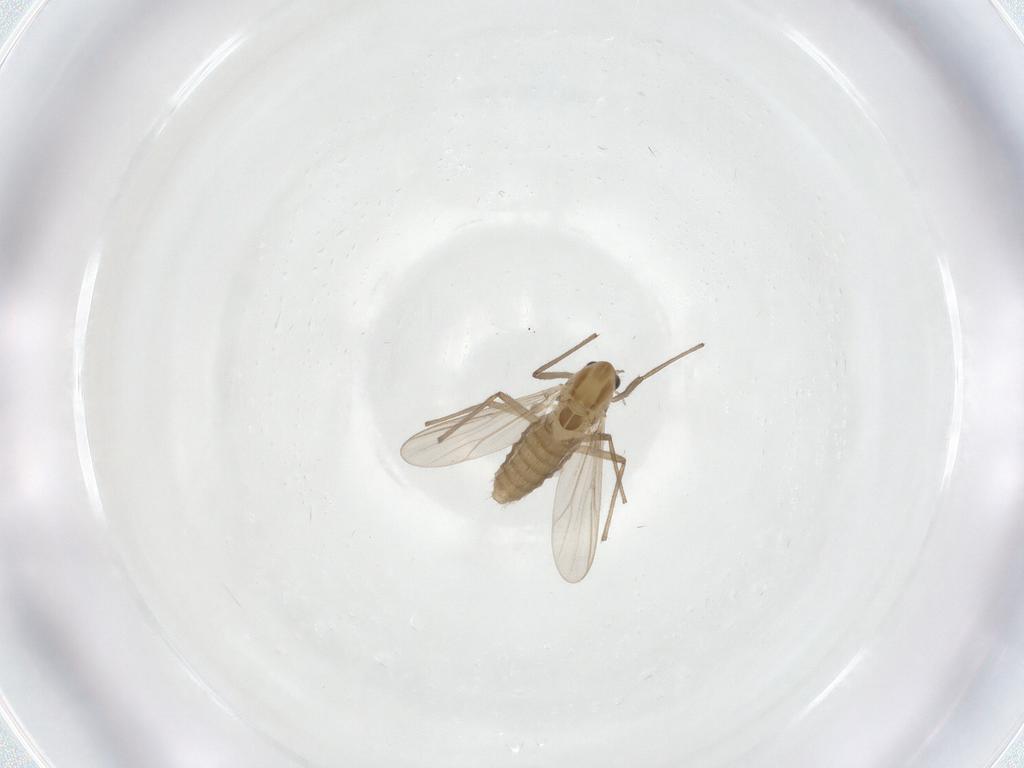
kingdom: Animalia
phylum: Arthropoda
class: Insecta
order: Diptera
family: Chironomidae
